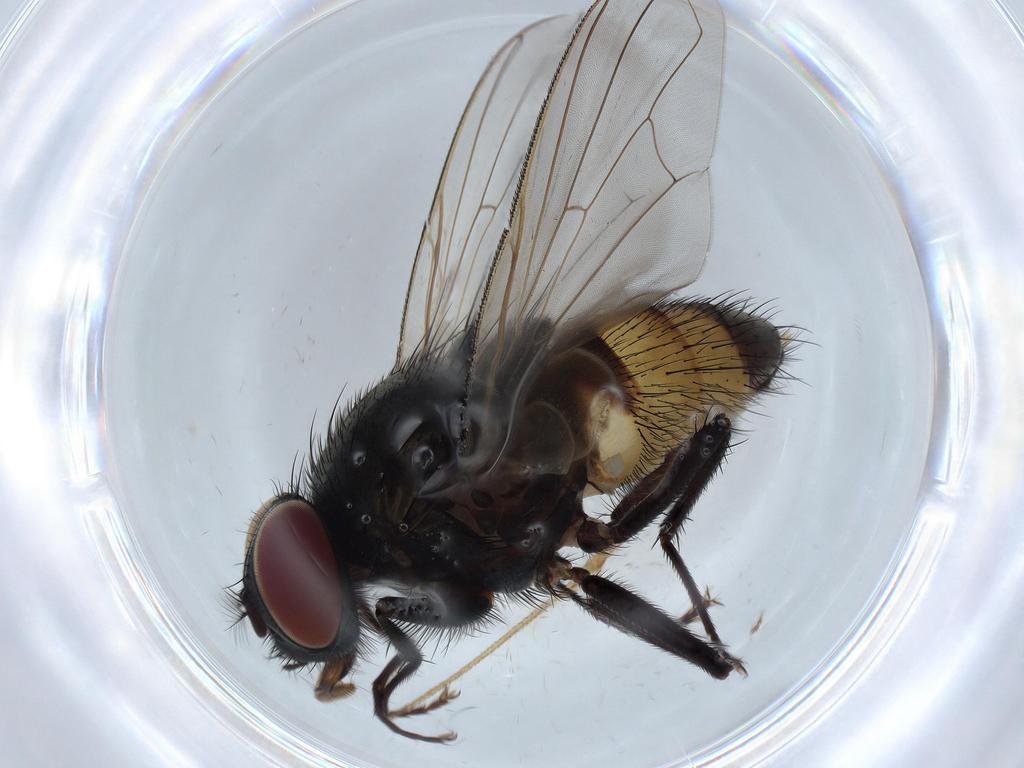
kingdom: Animalia
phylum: Arthropoda
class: Insecta
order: Diptera
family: Muscidae
